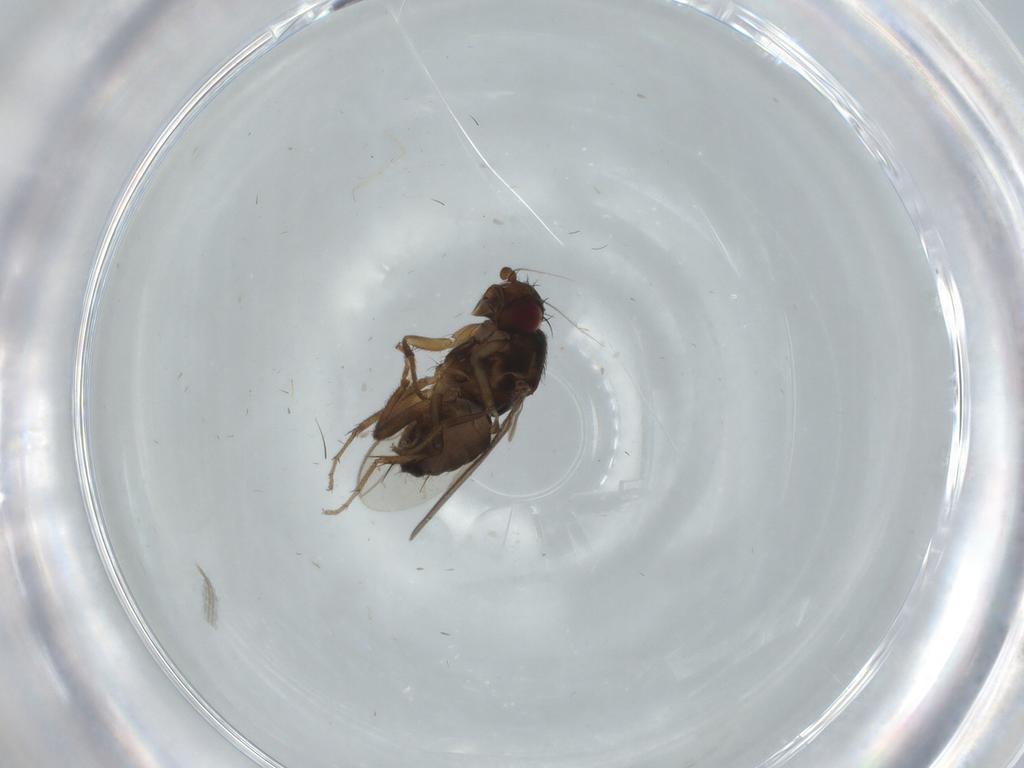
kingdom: Animalia
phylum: Arthropoda
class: Insecta
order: Diptera
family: Sphaeroceridae
